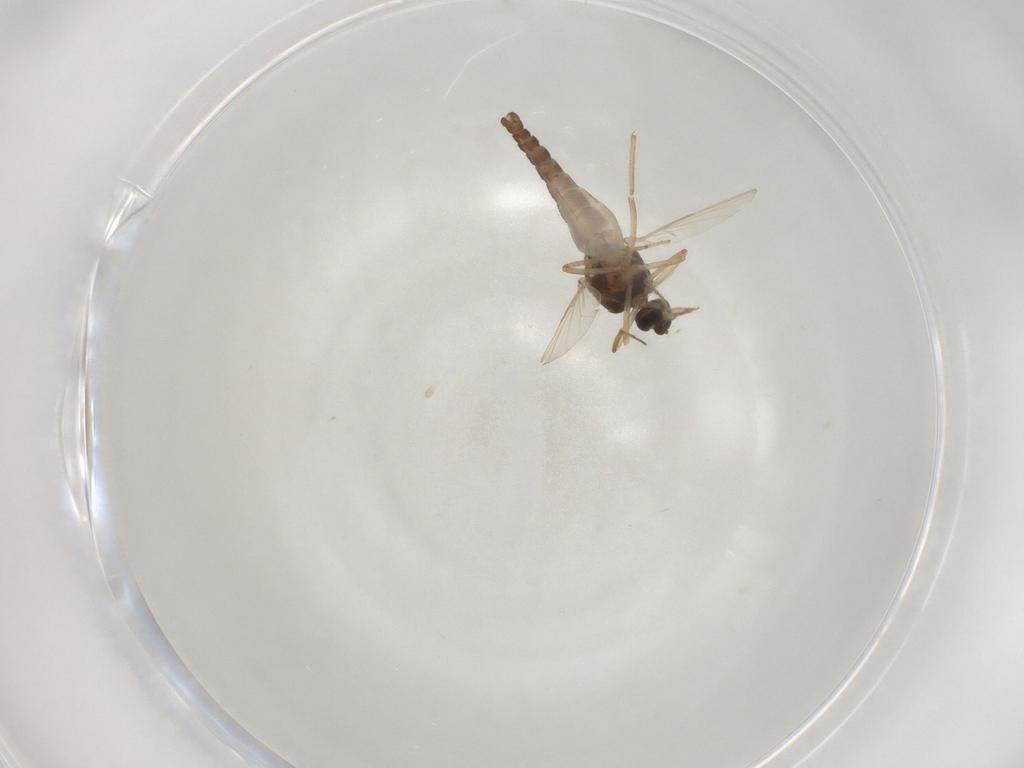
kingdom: Animalia
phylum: Arthropoda
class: Insecta
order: Diptera
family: Ceratopogonidae
